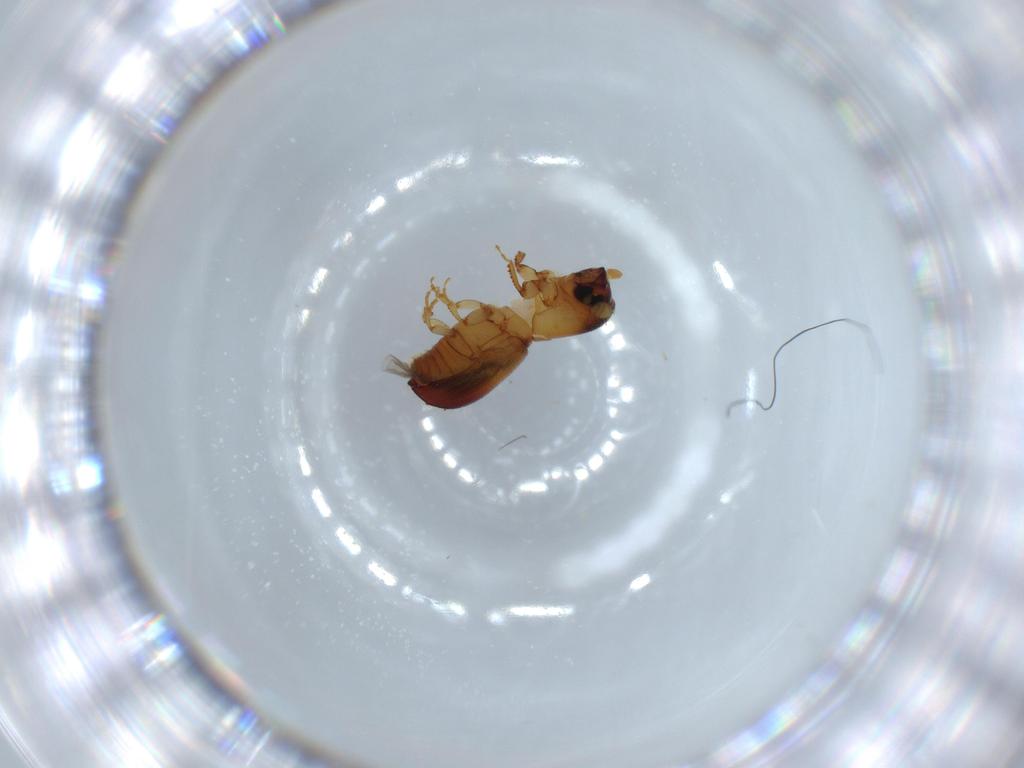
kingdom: Animalia
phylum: Arthropoda
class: Insecta
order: Coleoptera
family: Curculionidae
